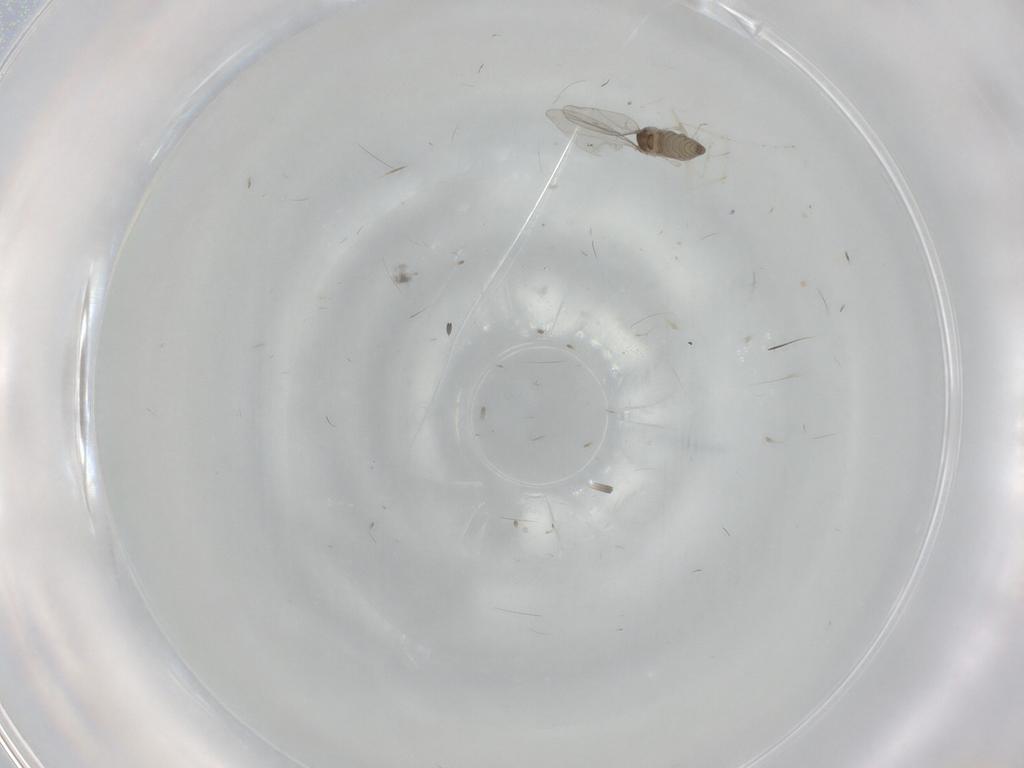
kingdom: Animalia
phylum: Arthropoda
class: Insecta
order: Diptera
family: Cecidomyiidae
